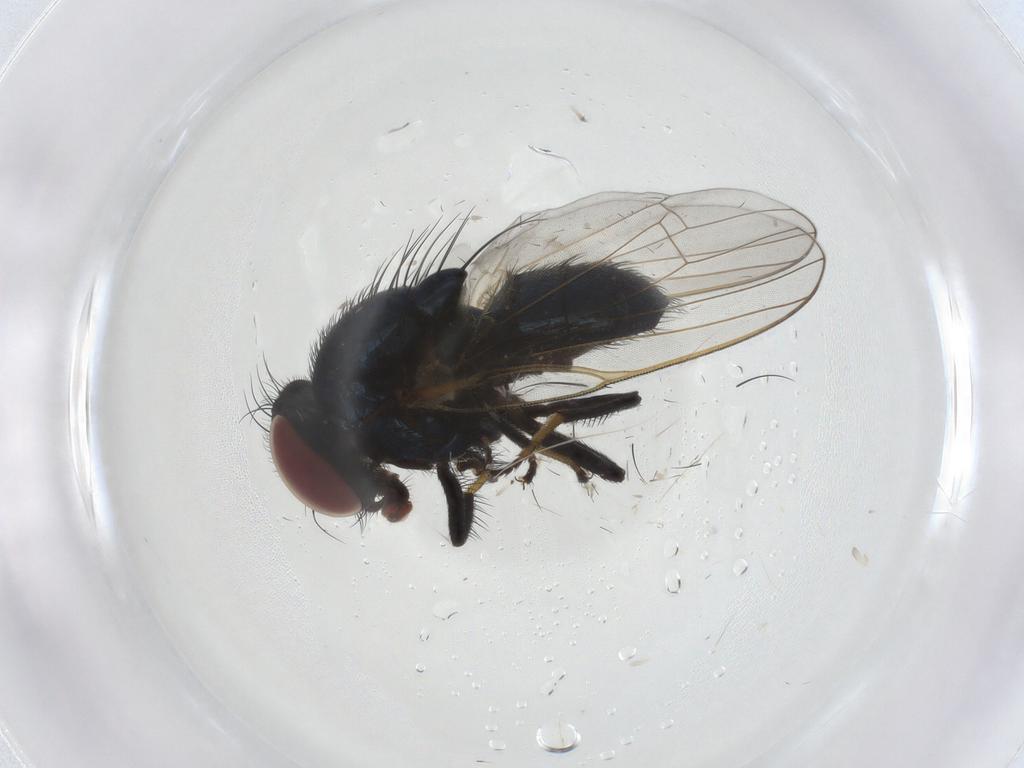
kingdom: Animalia
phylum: Arthropoda
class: Insecta
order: Diptera
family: Lonchaeidae
